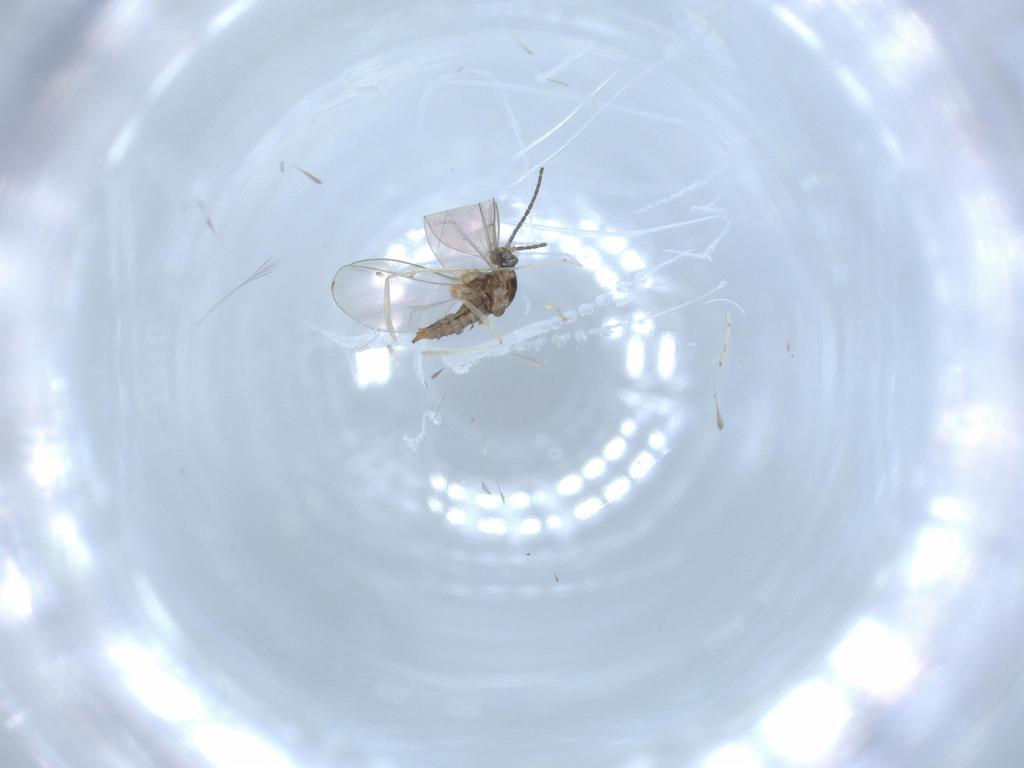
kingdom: Animalia
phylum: Arthropoda
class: Insecta
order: Diptera
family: Cecidomyiidae
